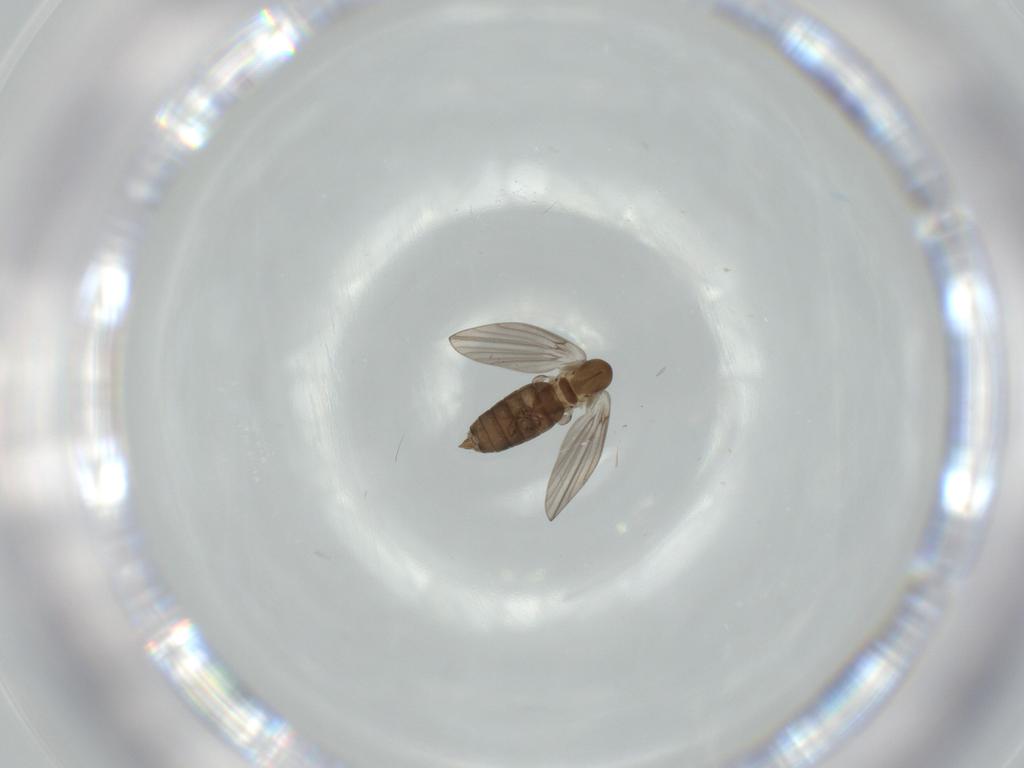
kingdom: Animalia
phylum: Arthropoda
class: Insecta
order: Diptera
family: Psychodidae
